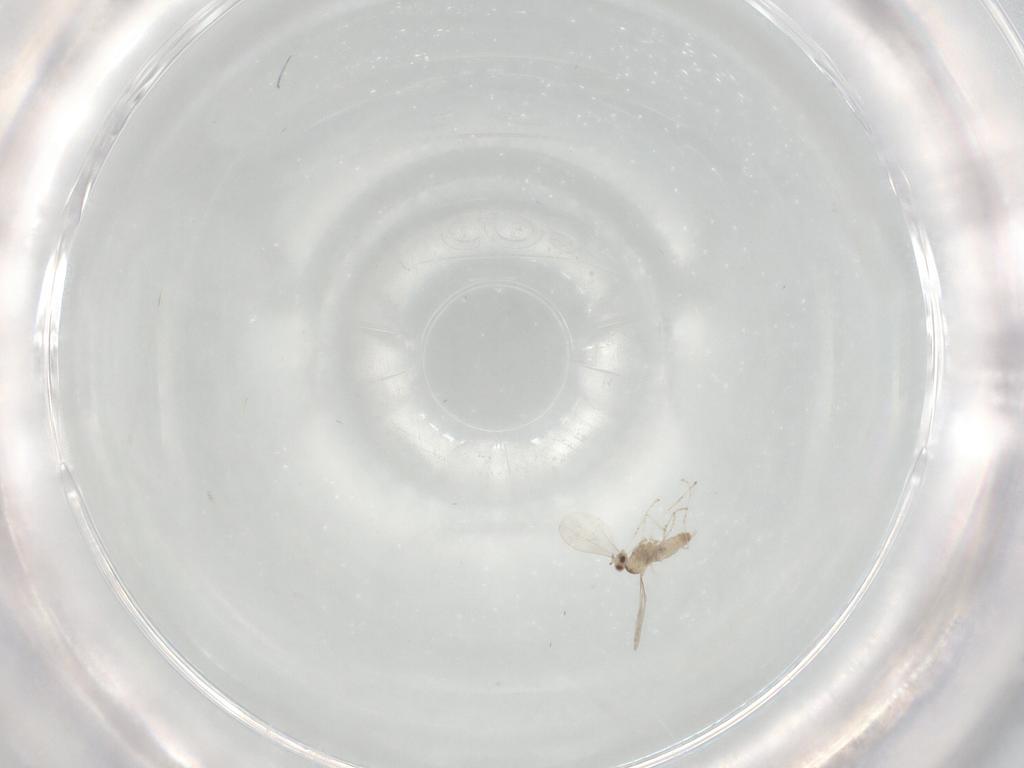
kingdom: Animalia
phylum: Arthropoda
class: Insecta
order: Diptera
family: Cecidomyiidae
